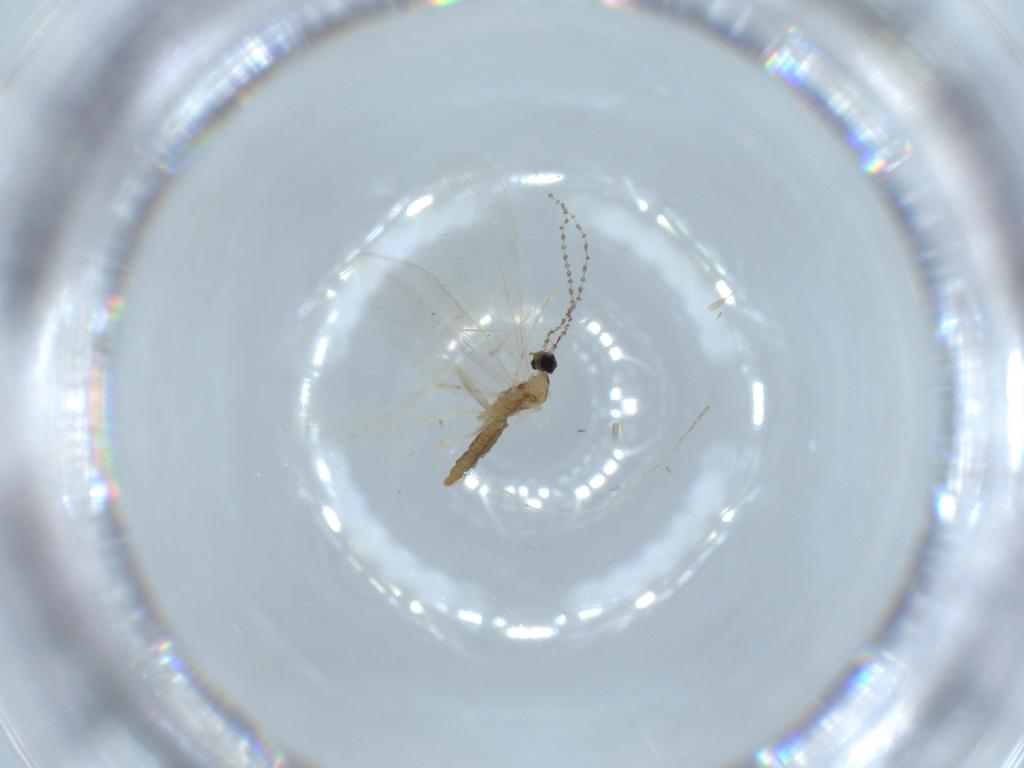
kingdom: Animalia
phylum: Arthropoda
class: Insecta
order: Diptera
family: Cecidomyiidae
